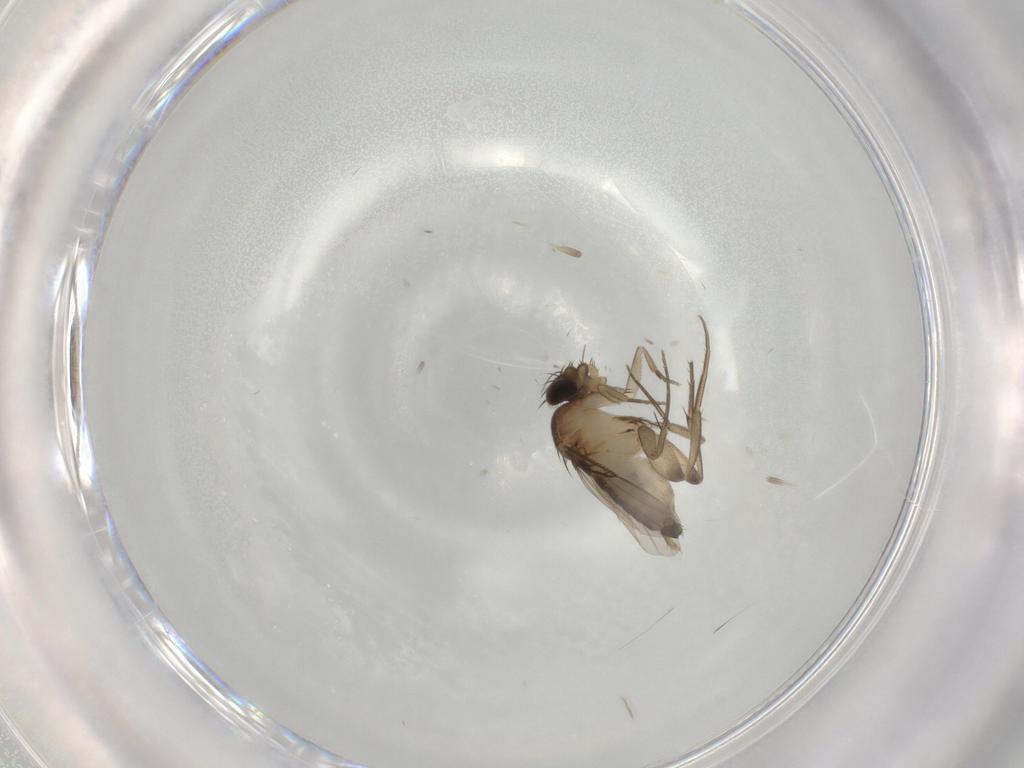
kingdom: Animalia
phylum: Arthropoda
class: Insecta
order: Diptera
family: Phoridae
